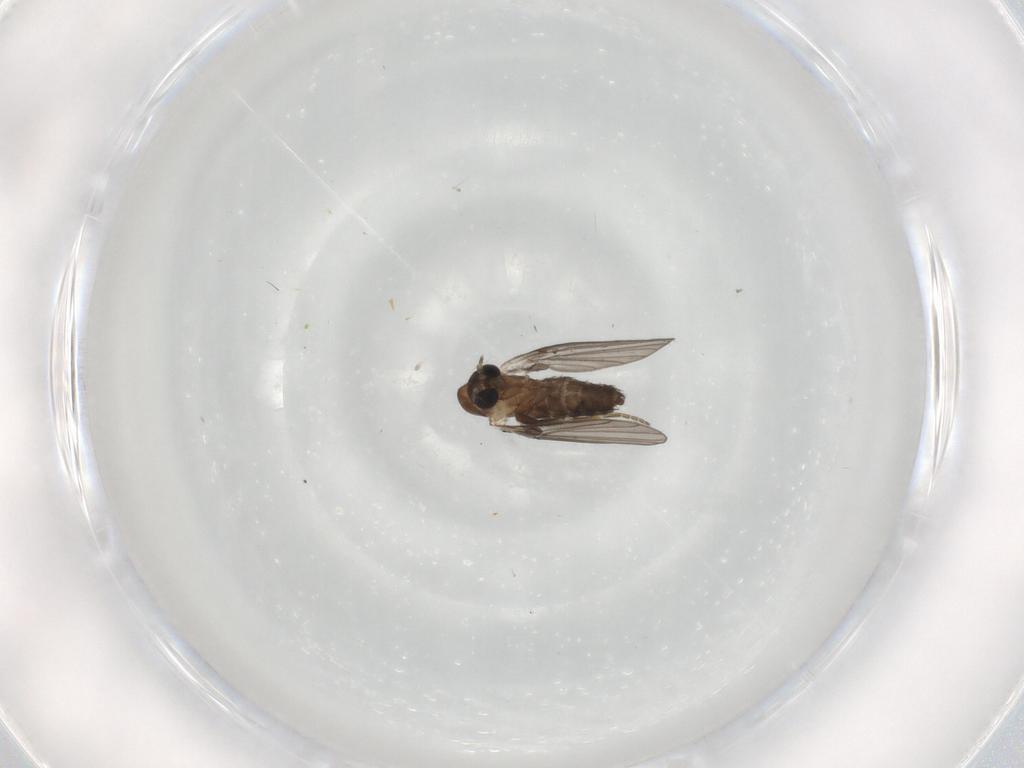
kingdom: Animalia
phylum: Arthropoda
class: Insecta
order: Diptera
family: Phoridae
